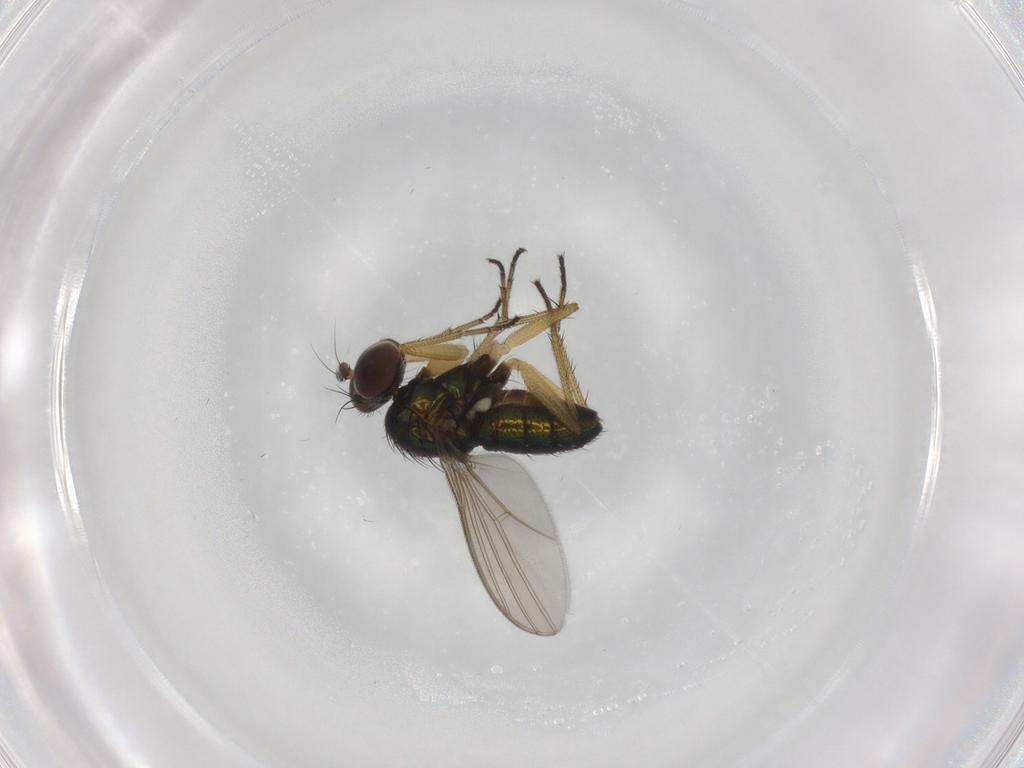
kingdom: Animalia
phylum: Arthropoda
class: Insecta
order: Diptera
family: Dolichopodidae
